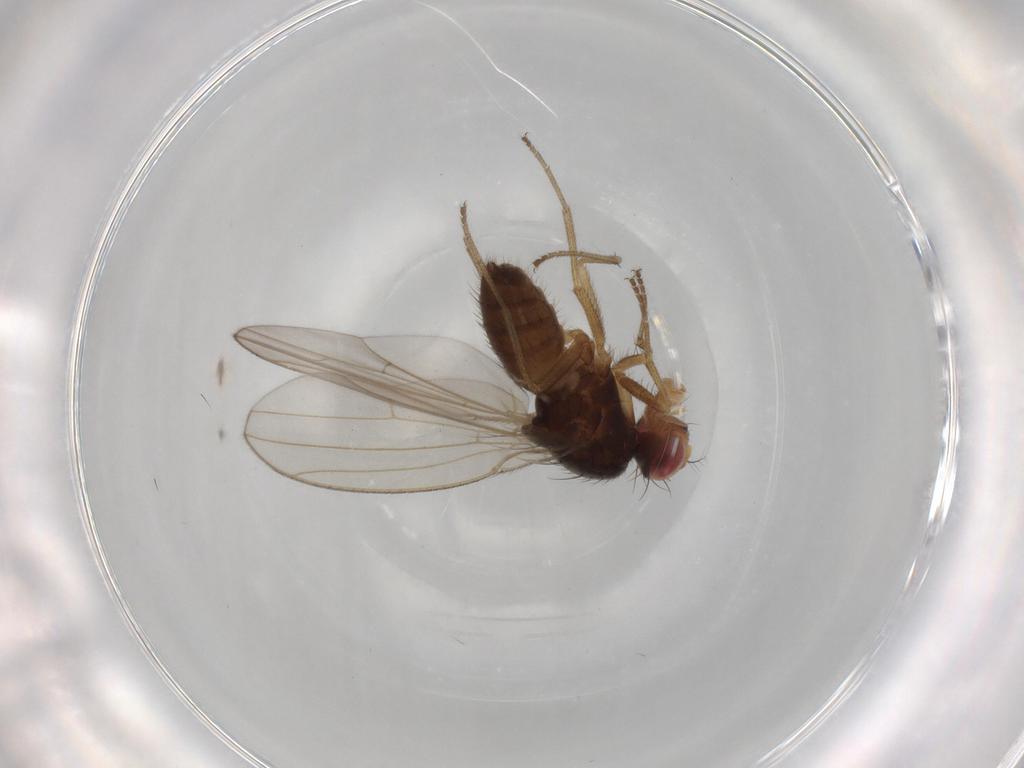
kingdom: Animalia
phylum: Arthropoda
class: Insecta
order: Diptera
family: Drosophilidae
